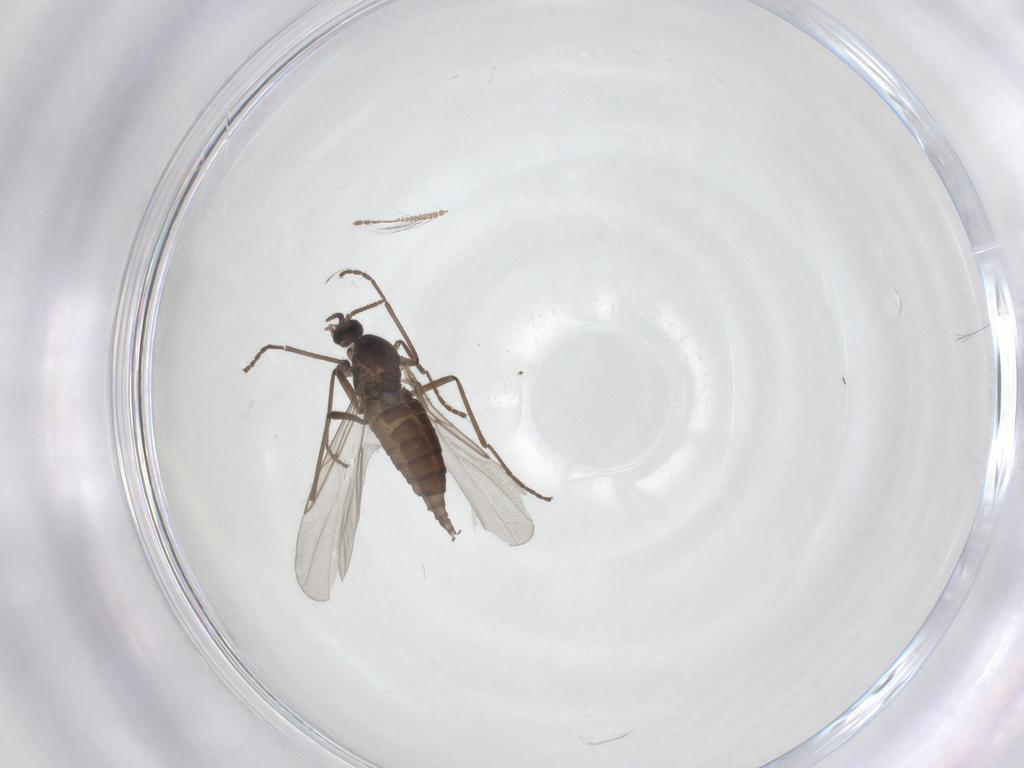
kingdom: Animalia
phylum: Arthropoda
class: Insecta
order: Diptera
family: Cecidomyiidae
